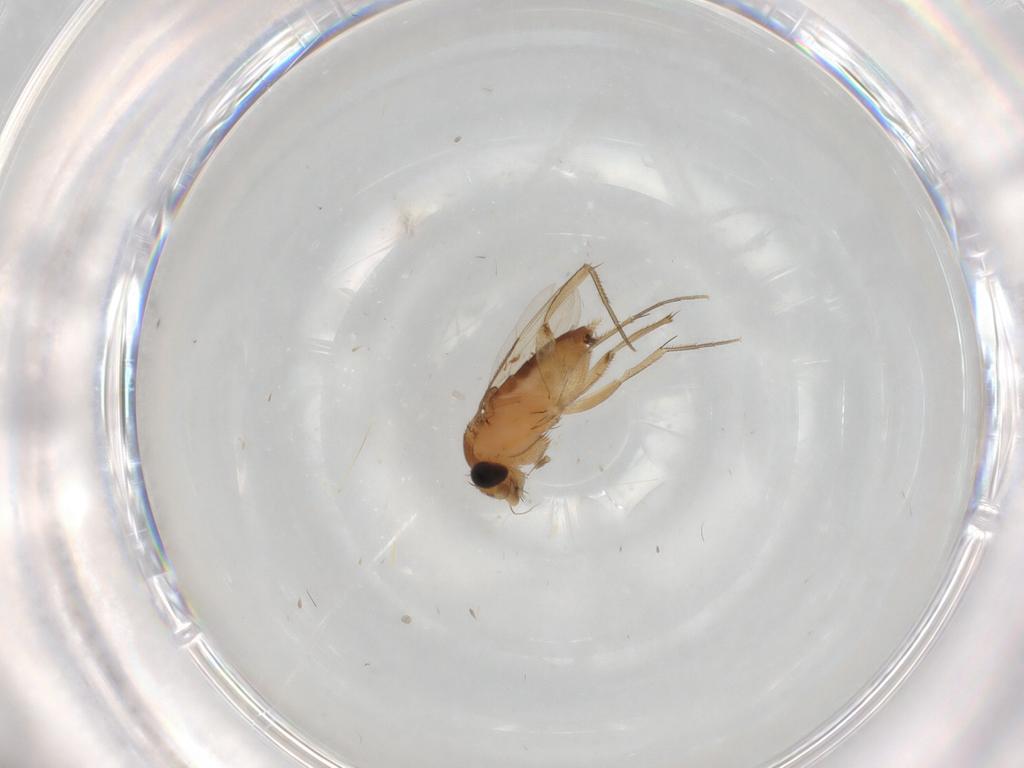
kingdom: Animalia
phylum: Arthropoda
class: Insecta
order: Diptera
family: Phoridae
